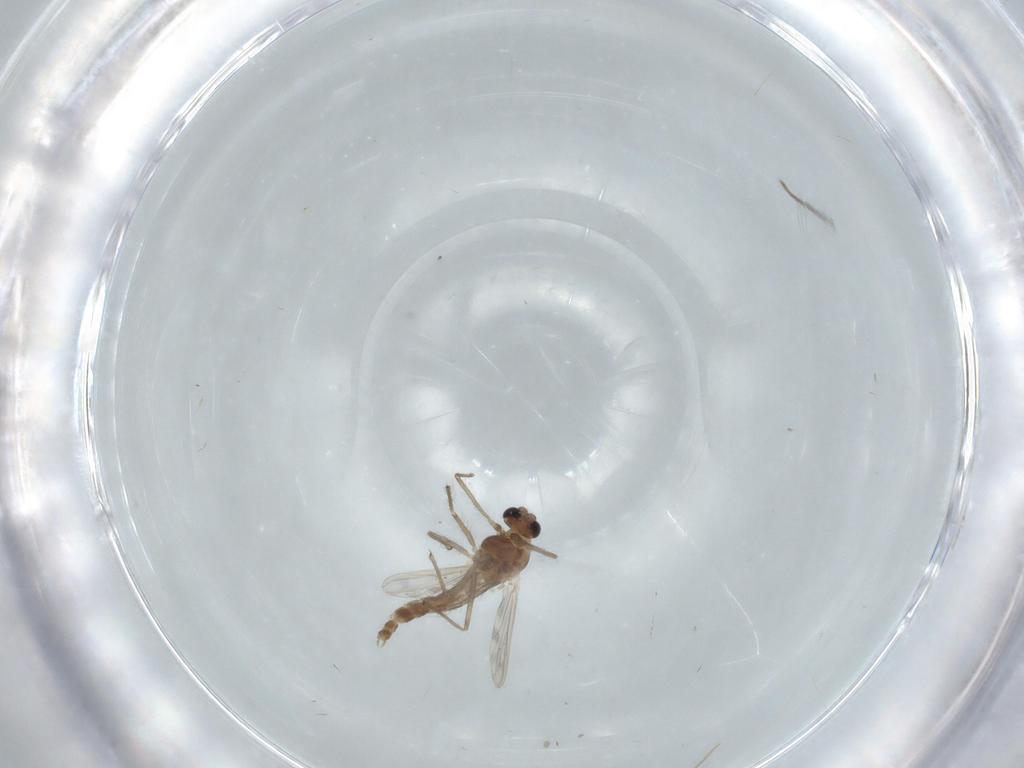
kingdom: Animalia
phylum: Arthropoda
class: Insecta
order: Diptera
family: Chironomidae
